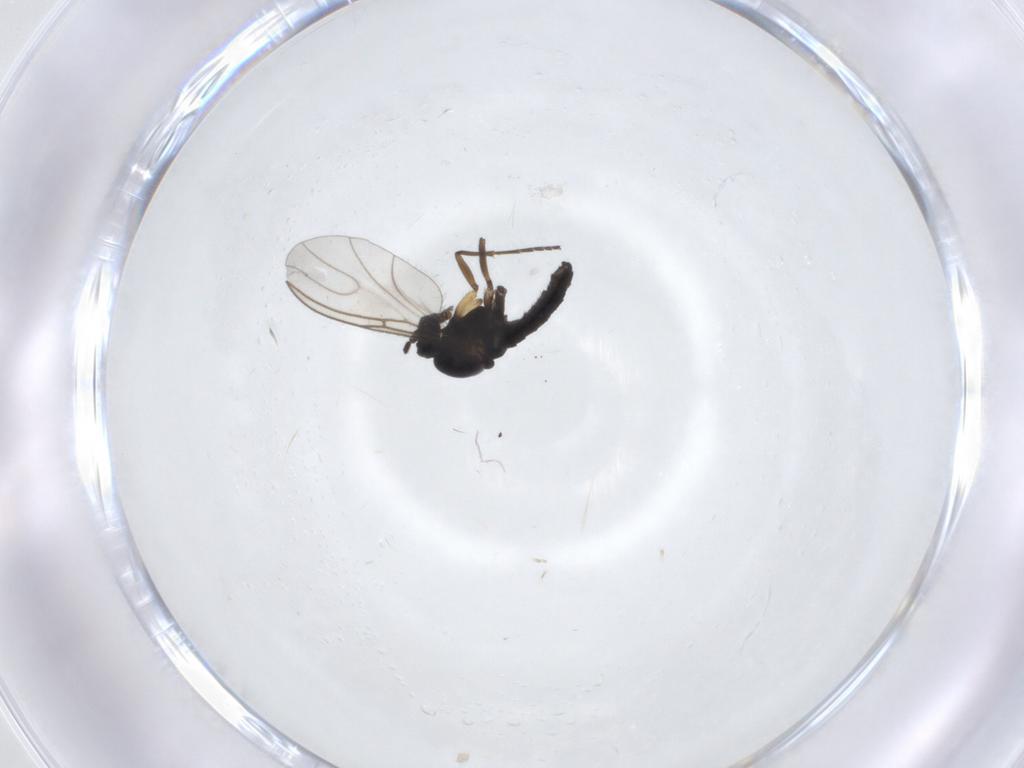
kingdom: Animalia
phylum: Arthropoda
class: Insecta
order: Diptera
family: Sciaridae
